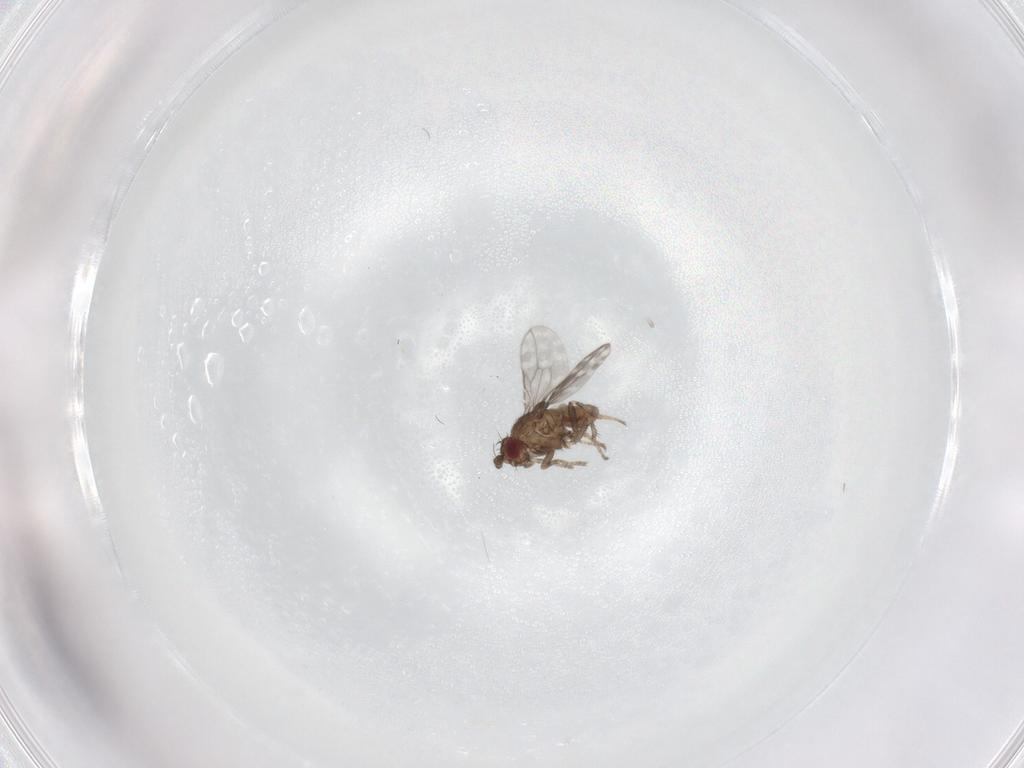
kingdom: Animalia
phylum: Arthropoda
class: Insecta
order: Diptera
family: Sphaeroceridae
